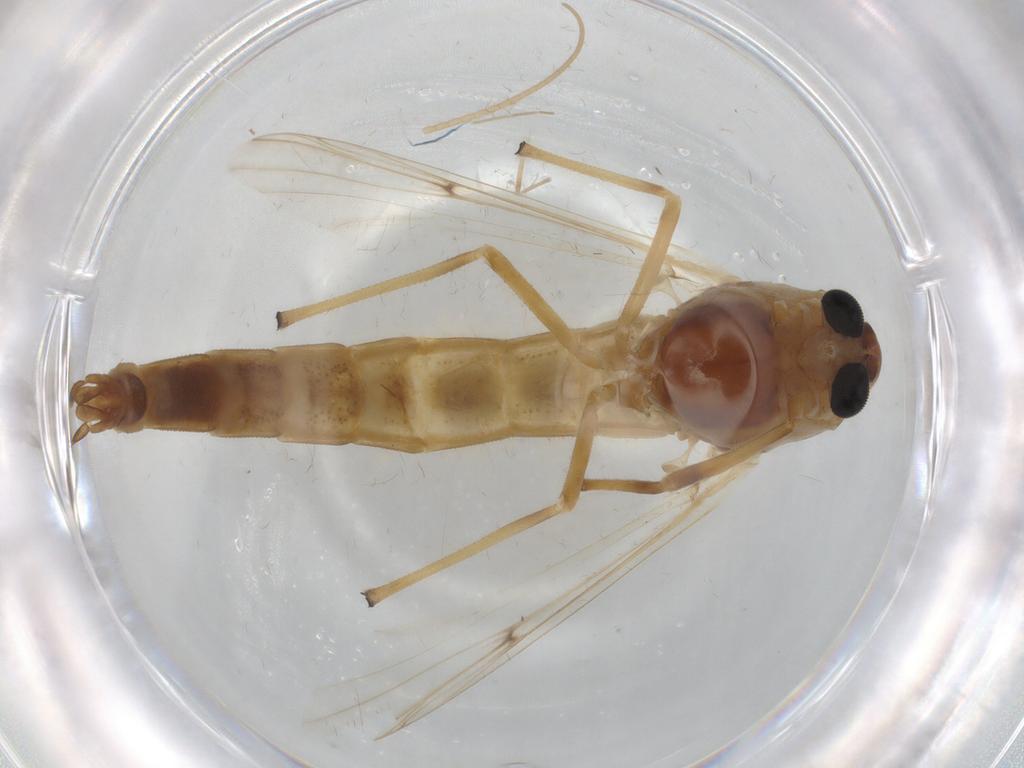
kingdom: Animalia
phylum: Arthropoda
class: Insecta
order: Diptera
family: Chironomidae
